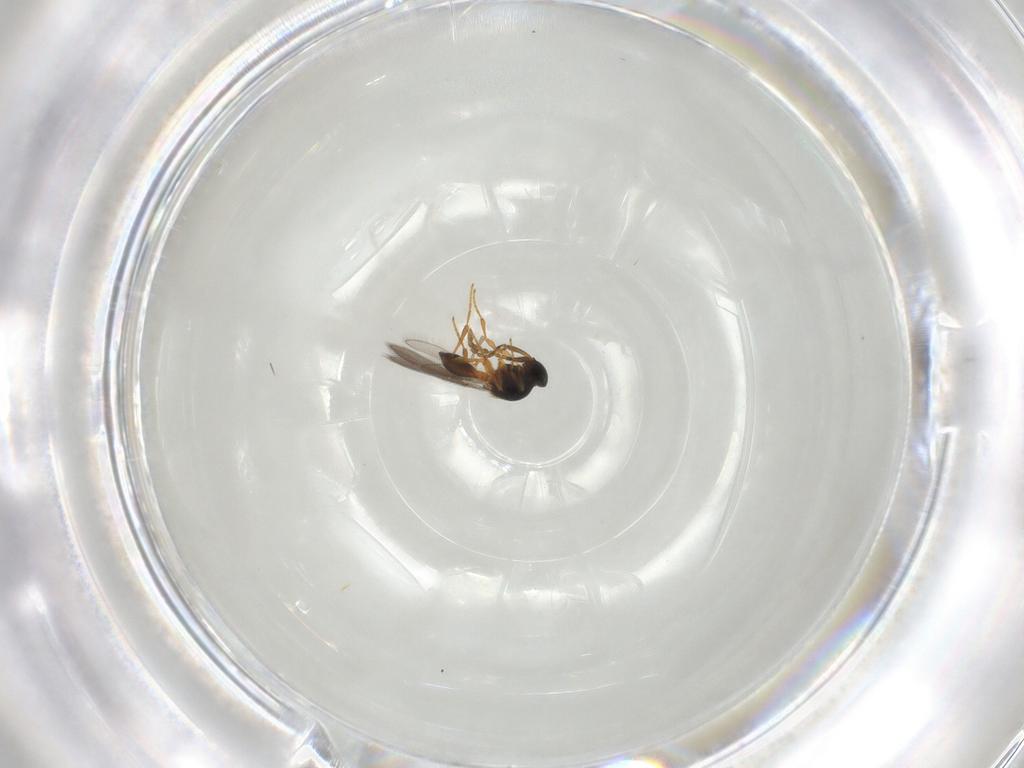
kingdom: Animalia
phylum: Arthropoda
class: Insecta
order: Hymenoptera
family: Platygastridae
